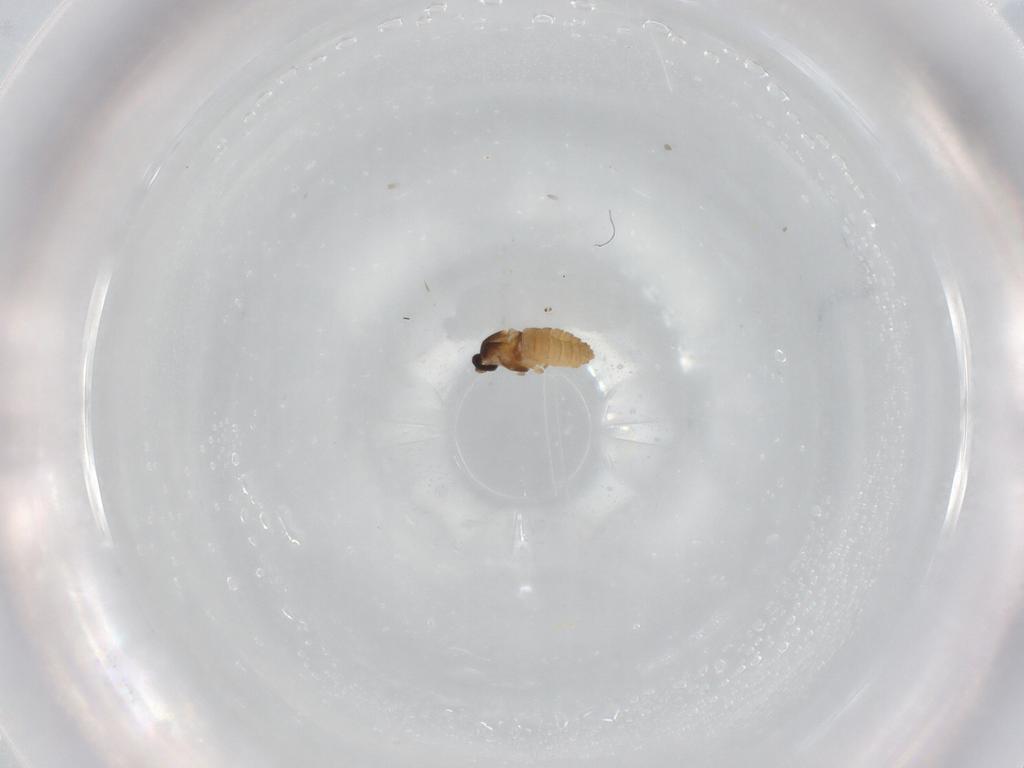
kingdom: Animalia
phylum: Arthropoda
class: Insecta
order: Diptera
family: Cecidomyiidae
